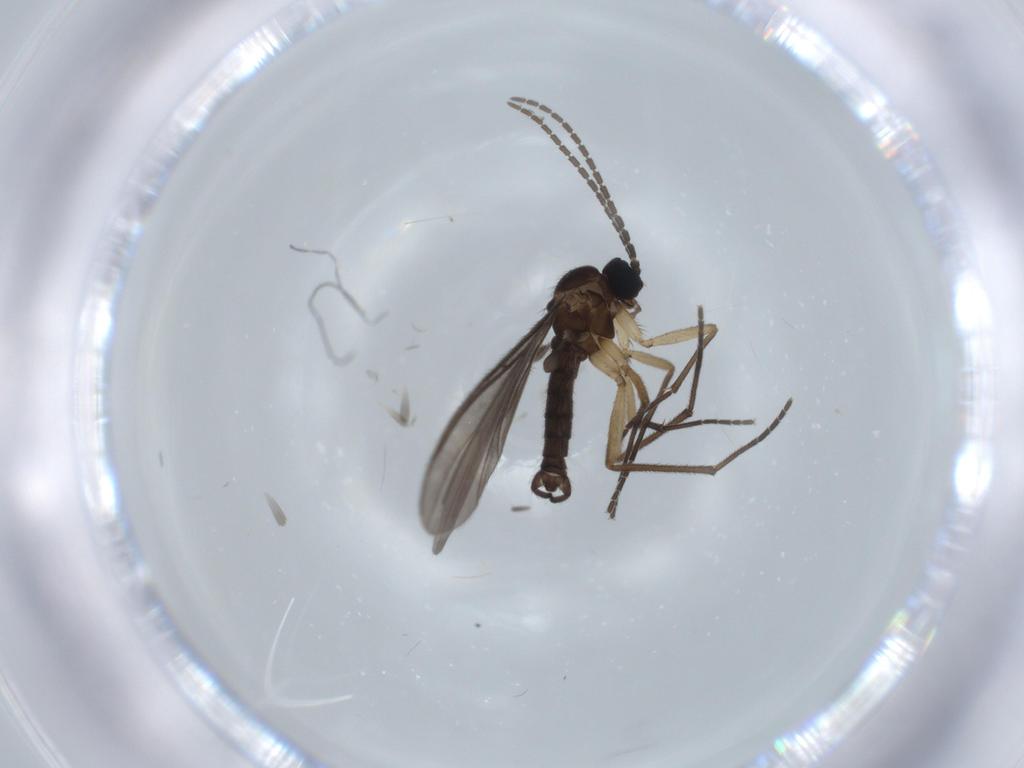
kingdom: Animalia
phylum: Arthropoda
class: Insecta
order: Diptera
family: Sciaridae
